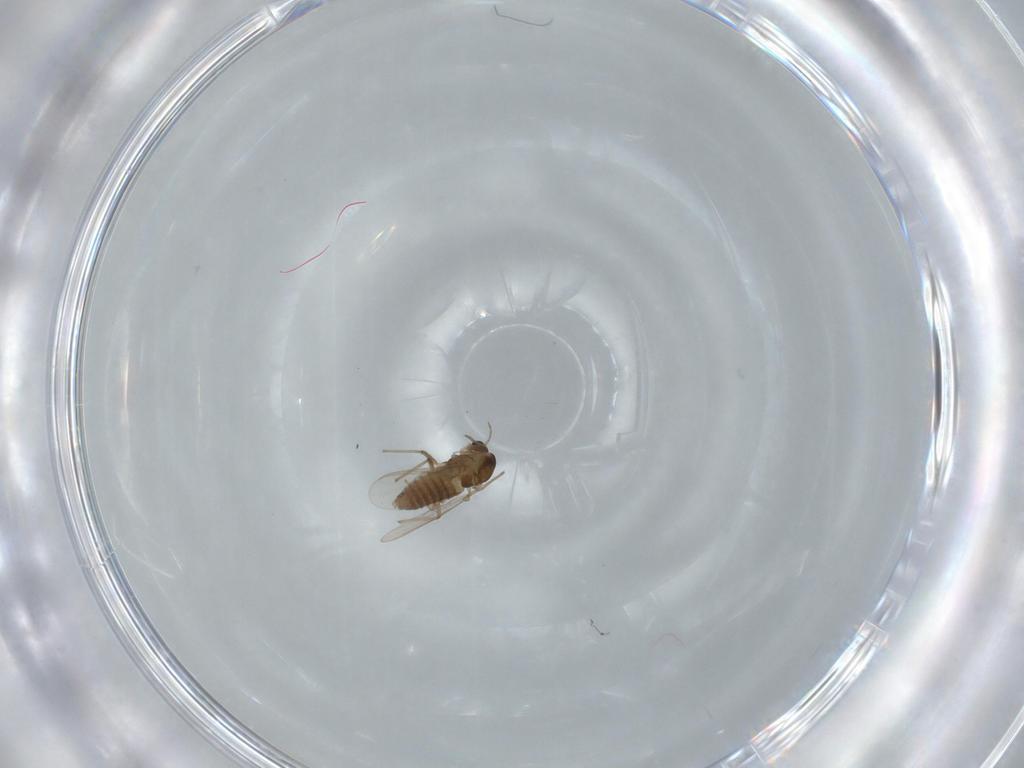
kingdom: Animalia
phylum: Arthropoda
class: Insecta
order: Diptera
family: Chironomidae
